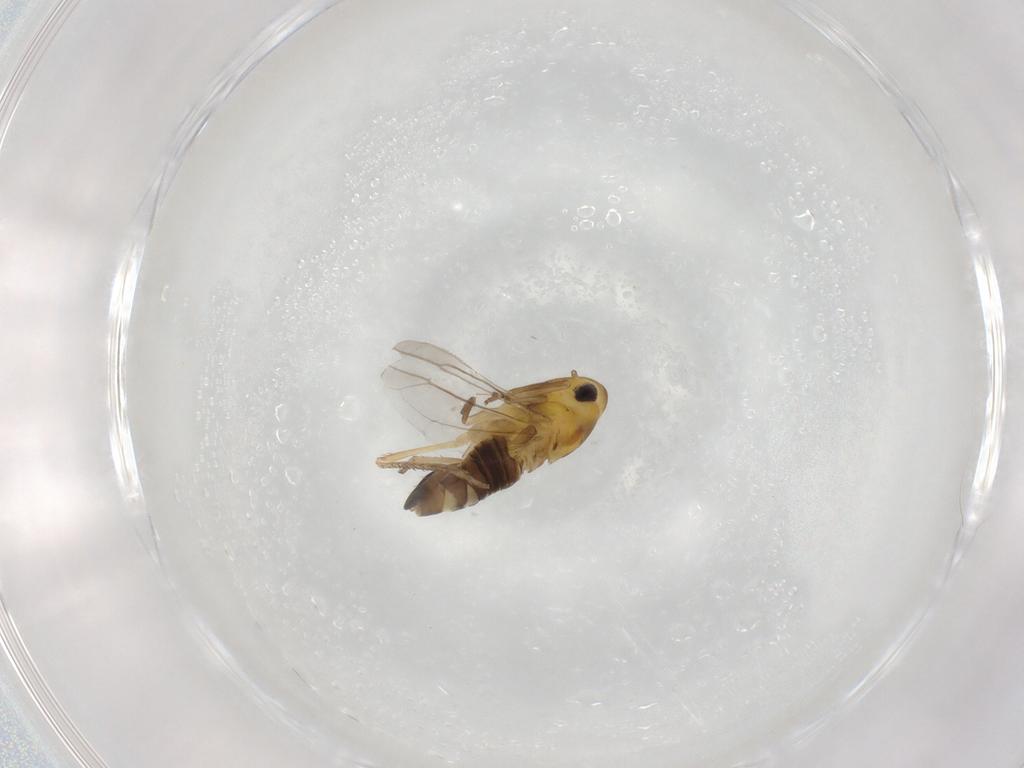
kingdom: Animalia
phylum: Arthropoda
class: Insecta
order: Hemiptera
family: Cicadellidae
